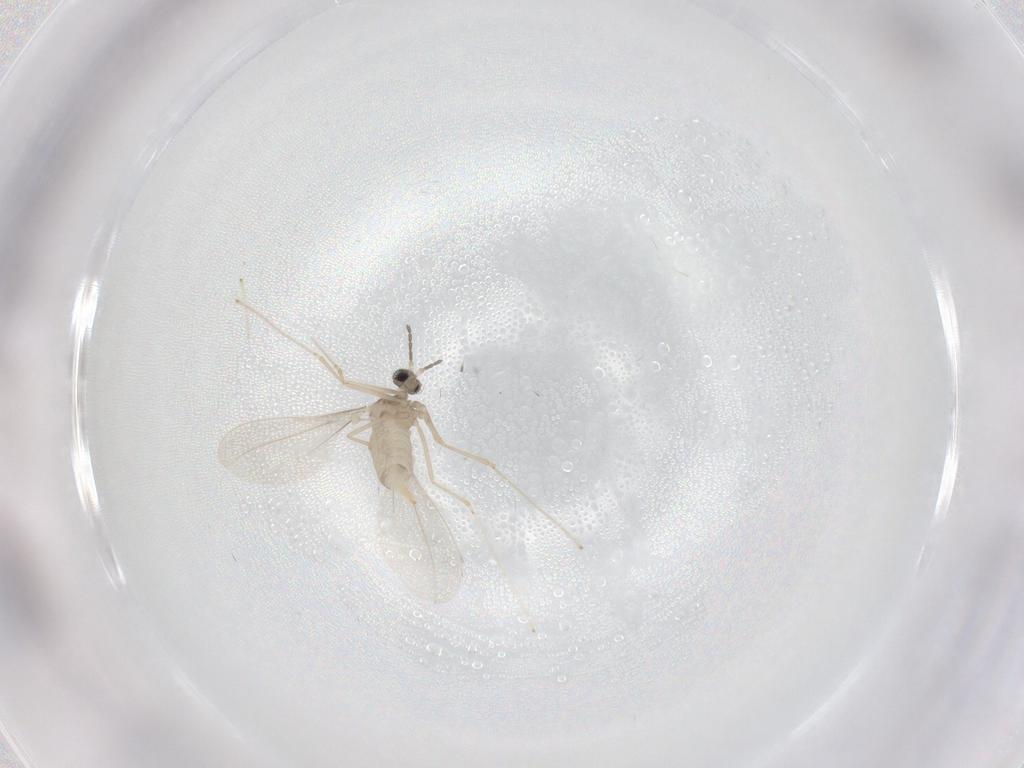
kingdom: Animalia
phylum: Arthropoda
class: Insecta
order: Diptera
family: Cecidomyiidae
